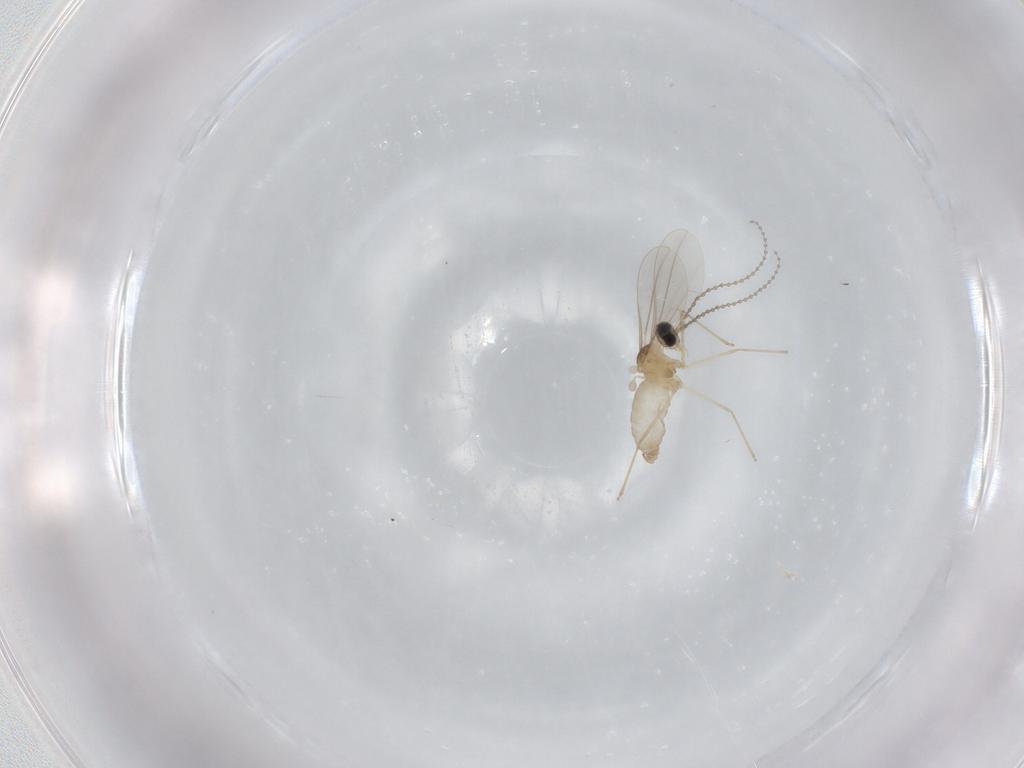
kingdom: Animalia
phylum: Arthropoda
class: Insecta
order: Diptera
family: Cecidomyiidae
